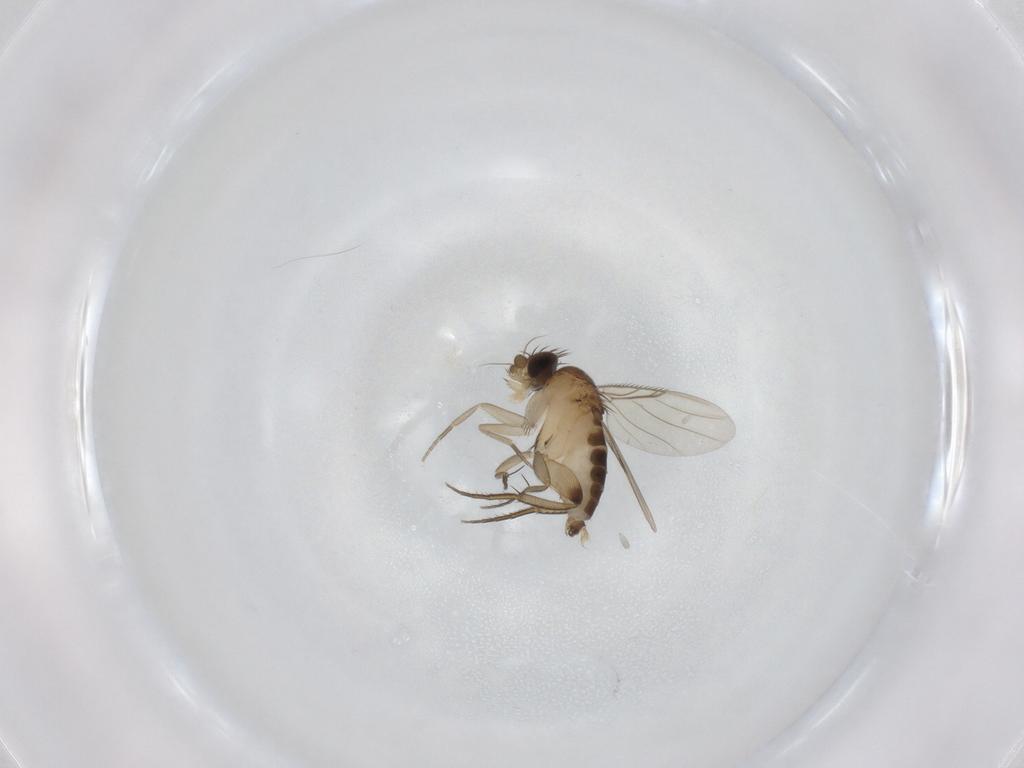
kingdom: Animalia
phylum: Arthropoda
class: Insecta
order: Diptera
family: Phoridae
